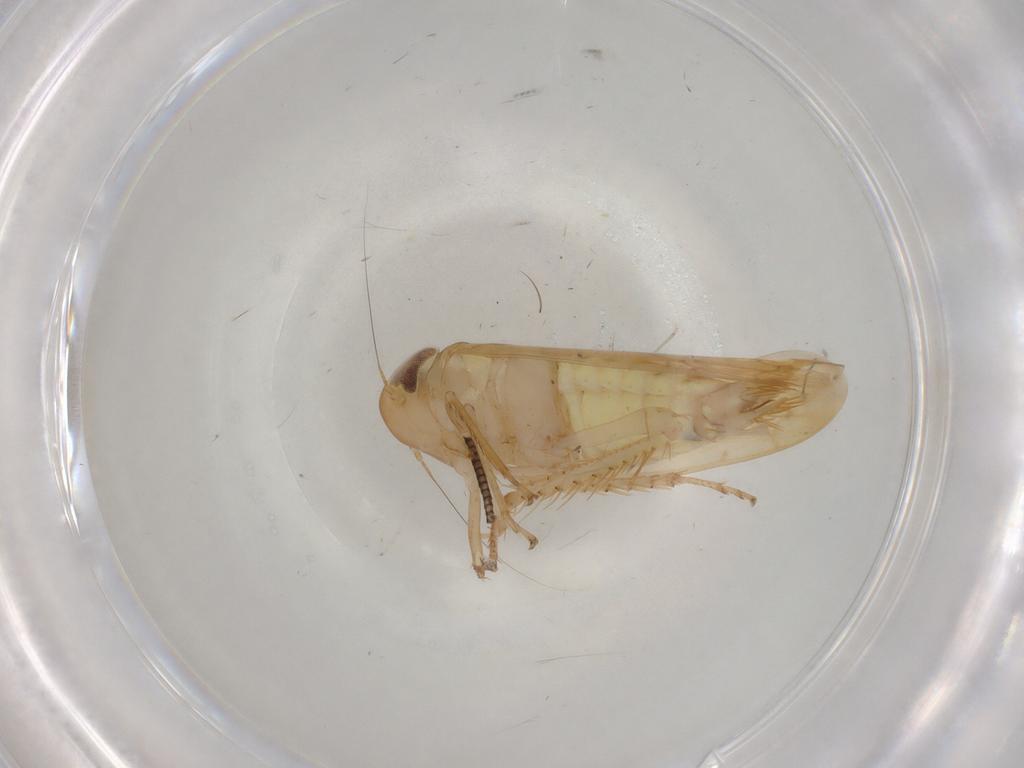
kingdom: Animalia
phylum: Arthropoda
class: Insecta
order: Hemiptera
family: Cicadellidae
